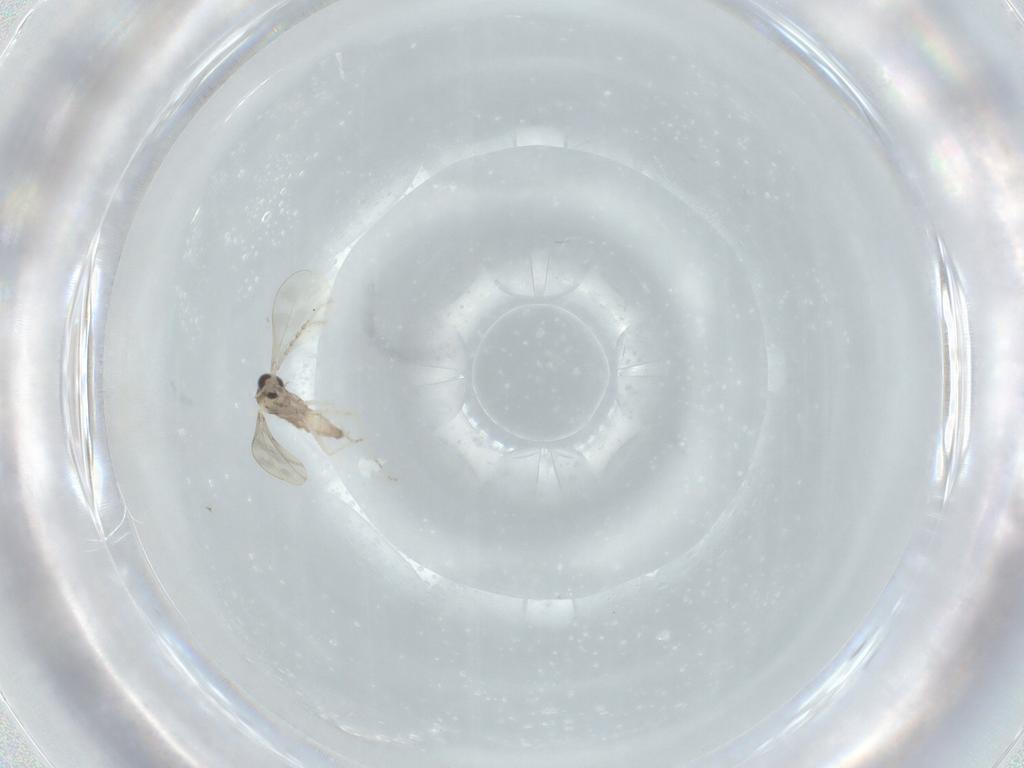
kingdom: Animalia
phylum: Arthropoda
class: Insecta
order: Diptera
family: Cecidomyiidae
